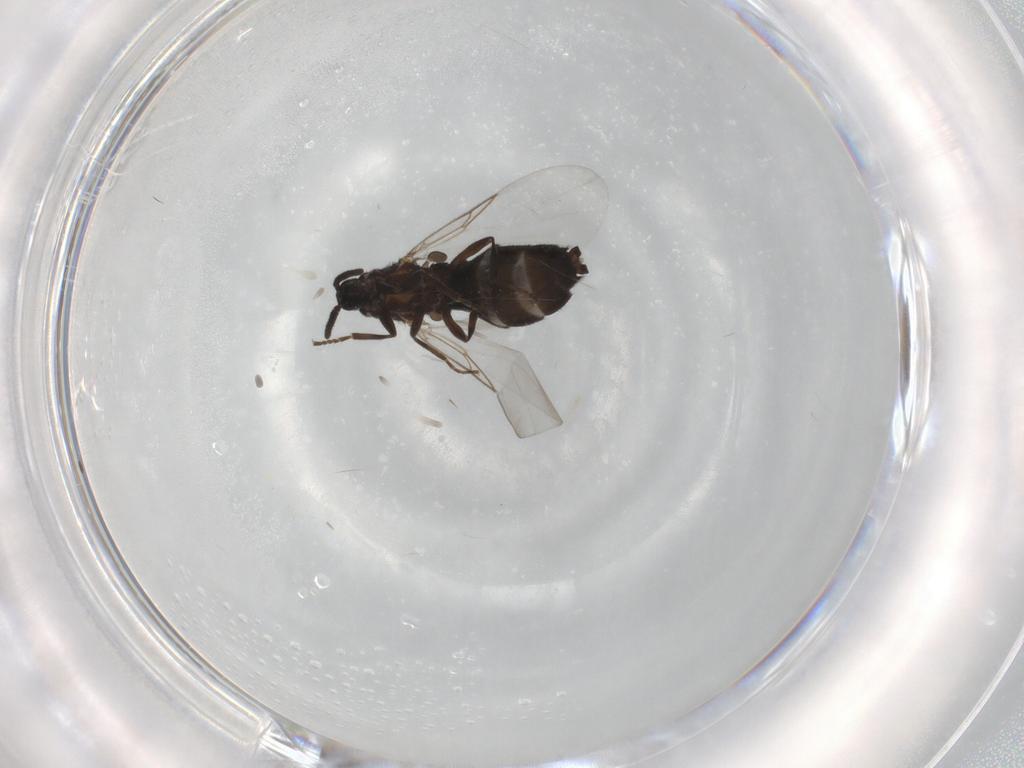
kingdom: Animalia
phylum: Arthropoda
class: Insecta
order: Diptera
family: Scatopsidae
